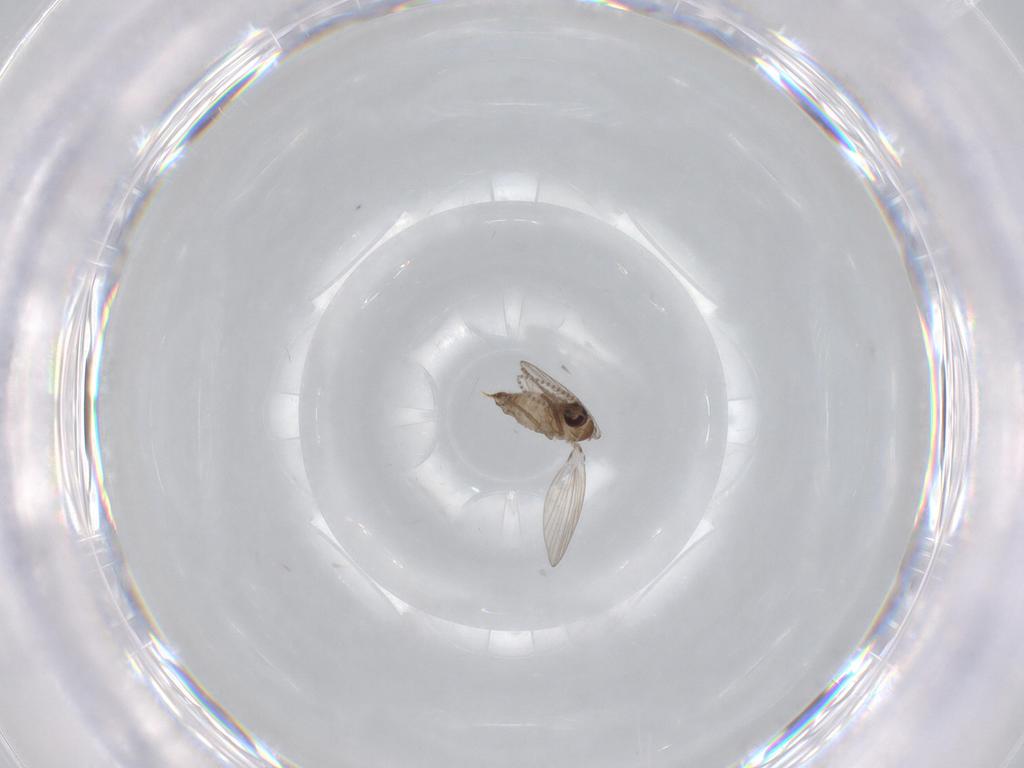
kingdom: Animalia
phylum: Arthropoda
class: Insecta
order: Diptera
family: Psychodidae
